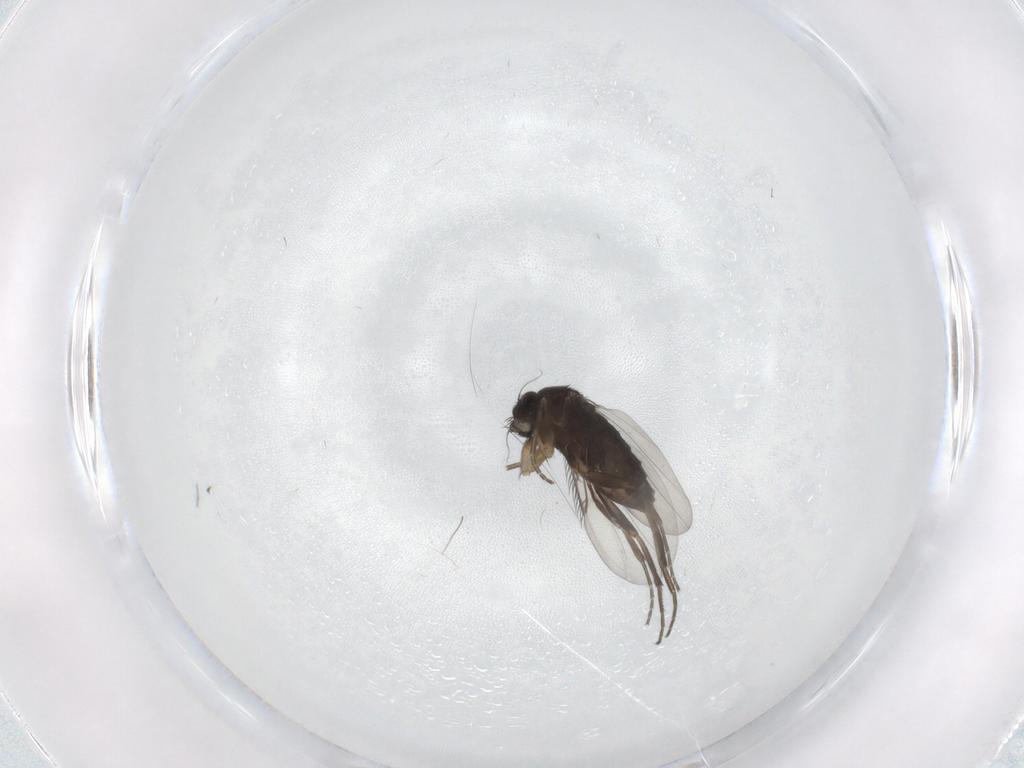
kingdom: Animalia
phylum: Arthropoda
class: Insecta
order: Diptera
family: Phoridae
